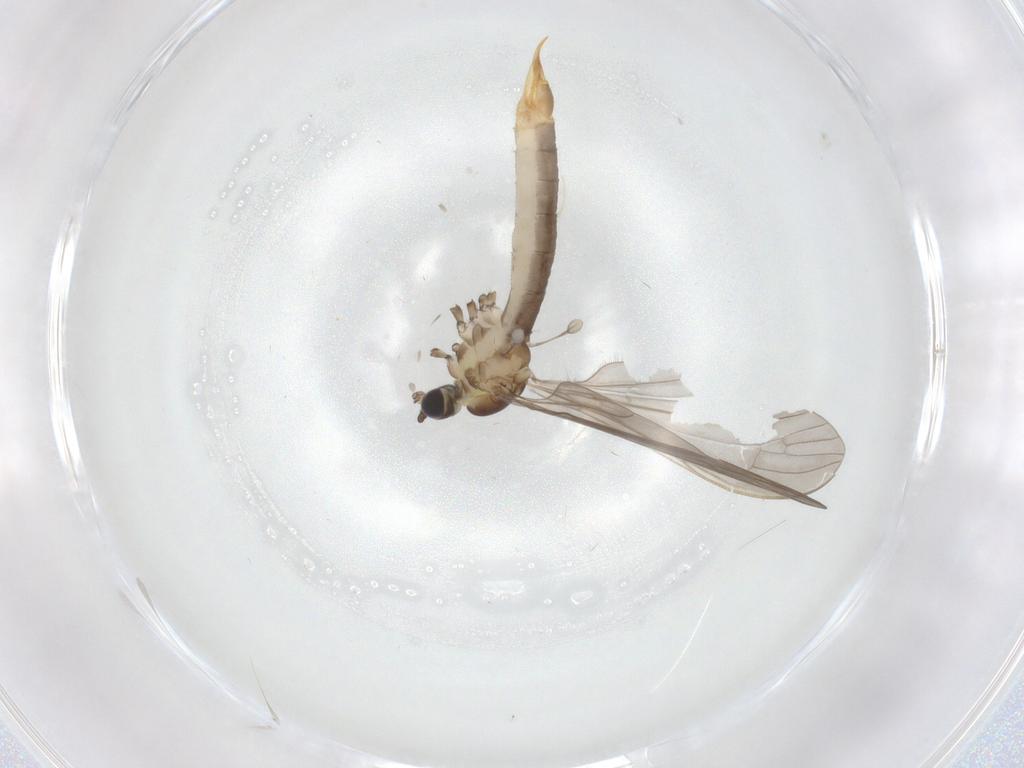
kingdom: Animalia
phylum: Arthropoda
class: Insecta
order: Diptera
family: Limoniidae
